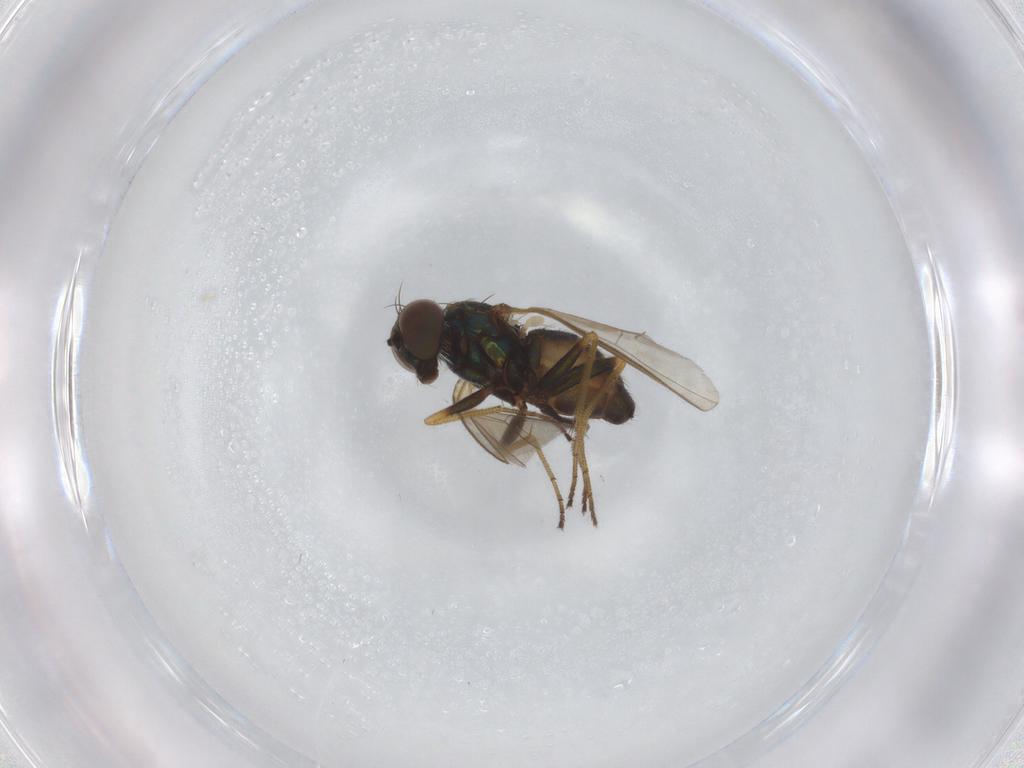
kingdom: Animalia
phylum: Arthropoda
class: Insecta
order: Diptera
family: Dolichopodidae
